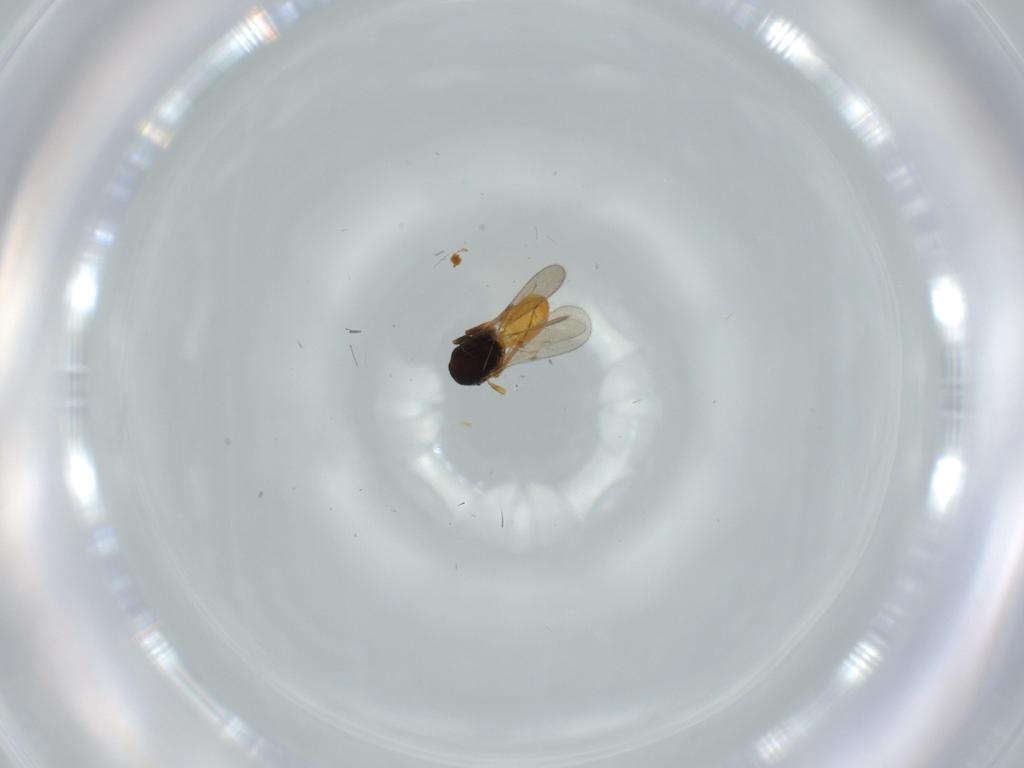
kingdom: Animalia
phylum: Arthropoda
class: Insecta
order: Hymenoptera
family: Scelionidae
